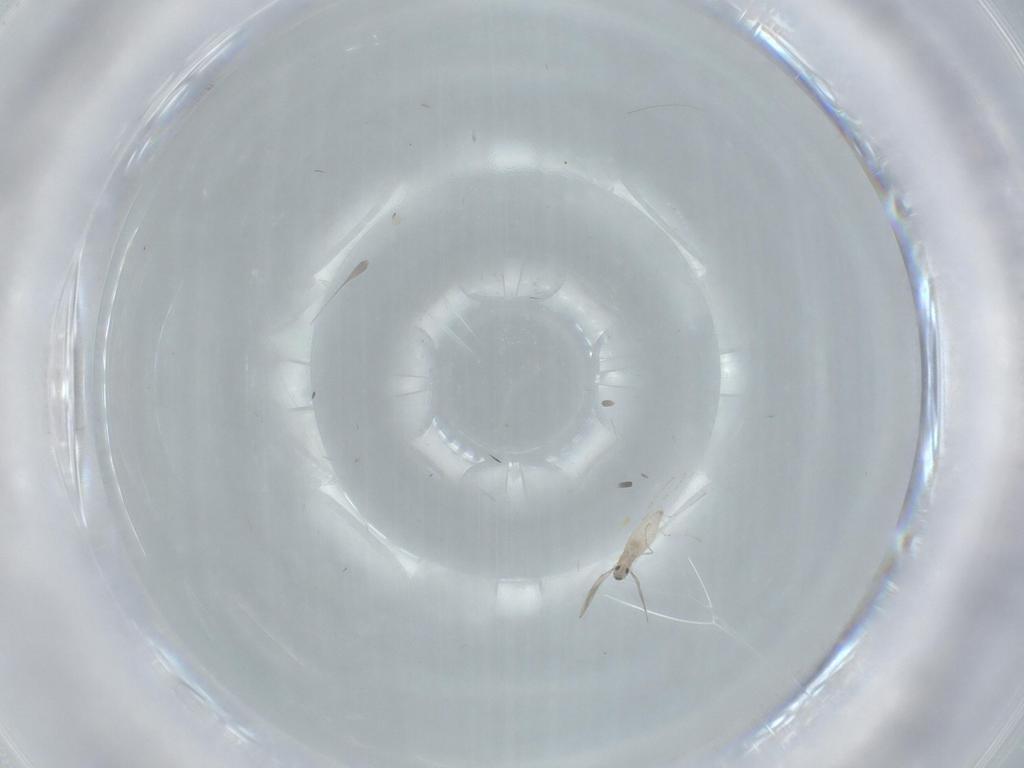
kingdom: Animalia
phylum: Arthropoda
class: Insecta
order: Diptera
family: Cecidomyiidae
